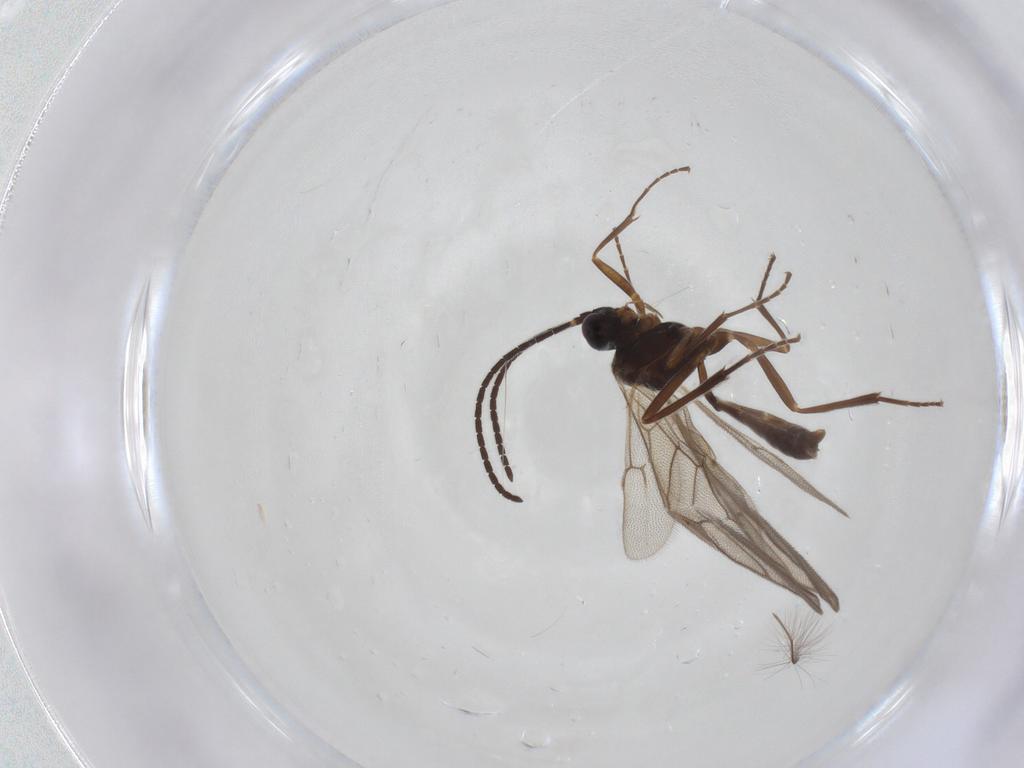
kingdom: Animalia
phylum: Arthropoda
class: Insecta
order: Hymenoptera
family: Ichneumonidae
